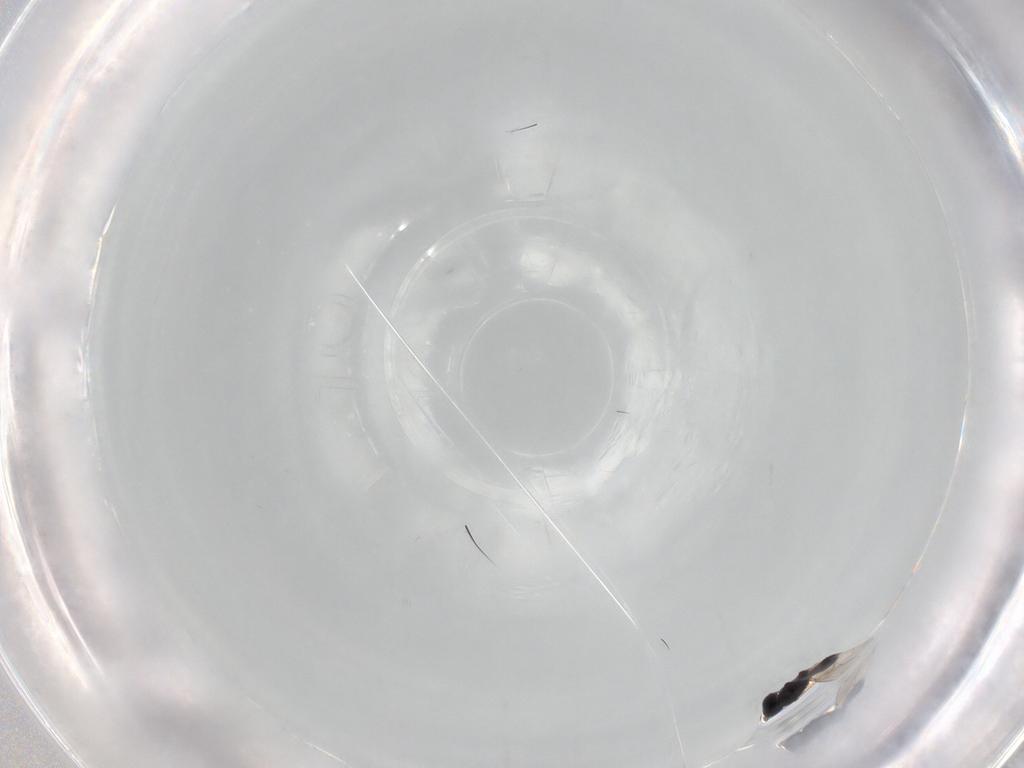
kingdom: Animalia
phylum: Arthropoda
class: Insecta
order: Hymenoptera
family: Scelionidae
